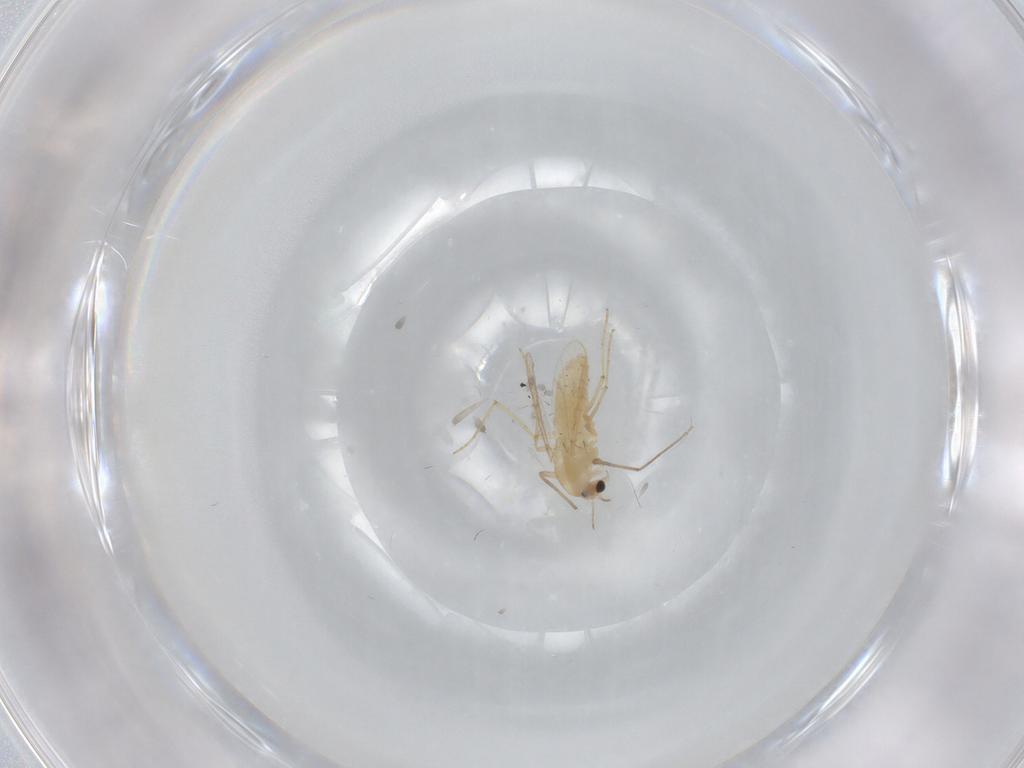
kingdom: Animalia
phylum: Arthropoda
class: Insecta
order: Diptera
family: Chironomidae
